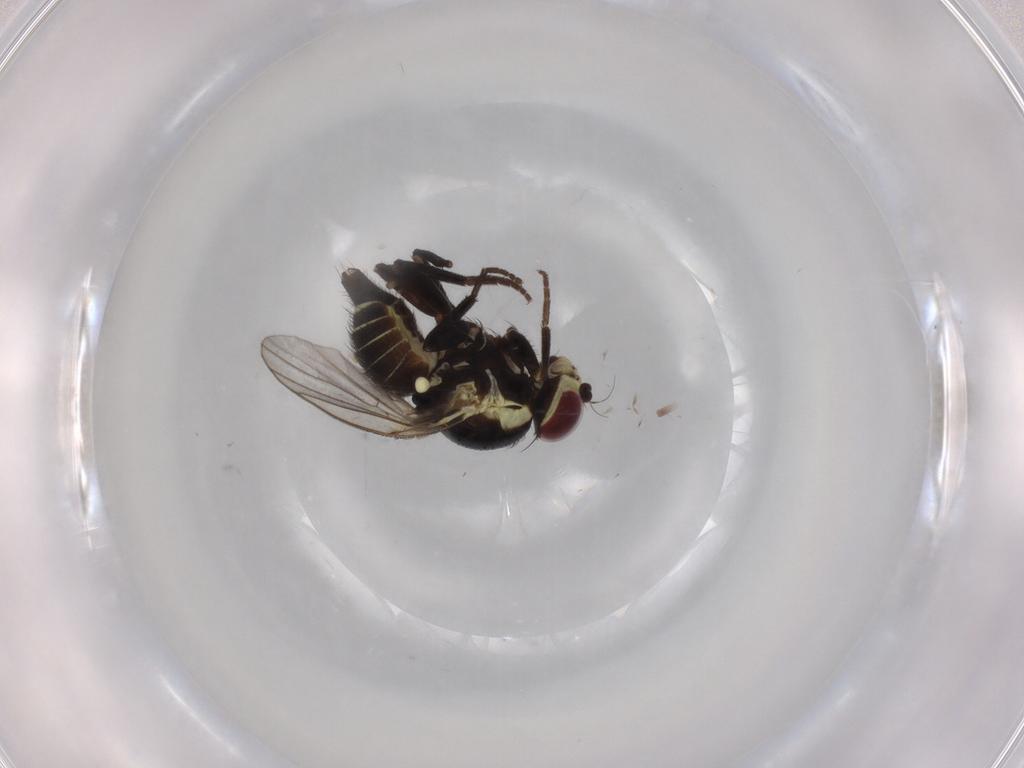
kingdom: Animalia
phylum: Arthropoda
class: Insecta
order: Diptera
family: Agromyzidae
